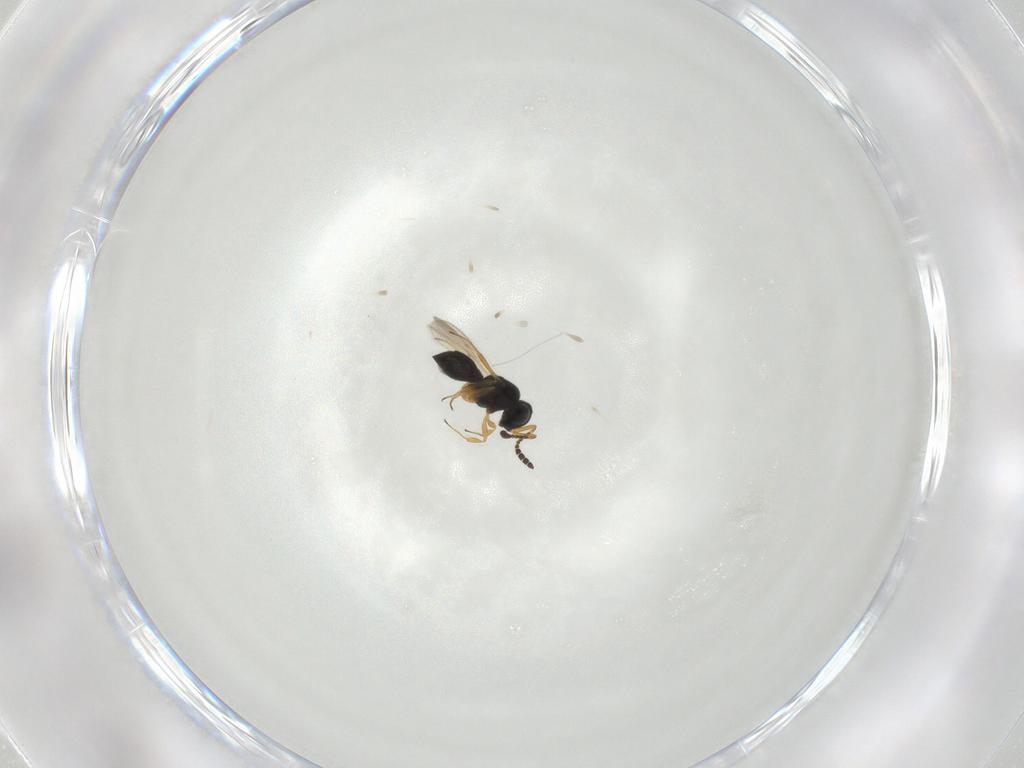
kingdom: Animalia
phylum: Arthropoda
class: Insecta
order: Hymenoptera
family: Scelionidae
